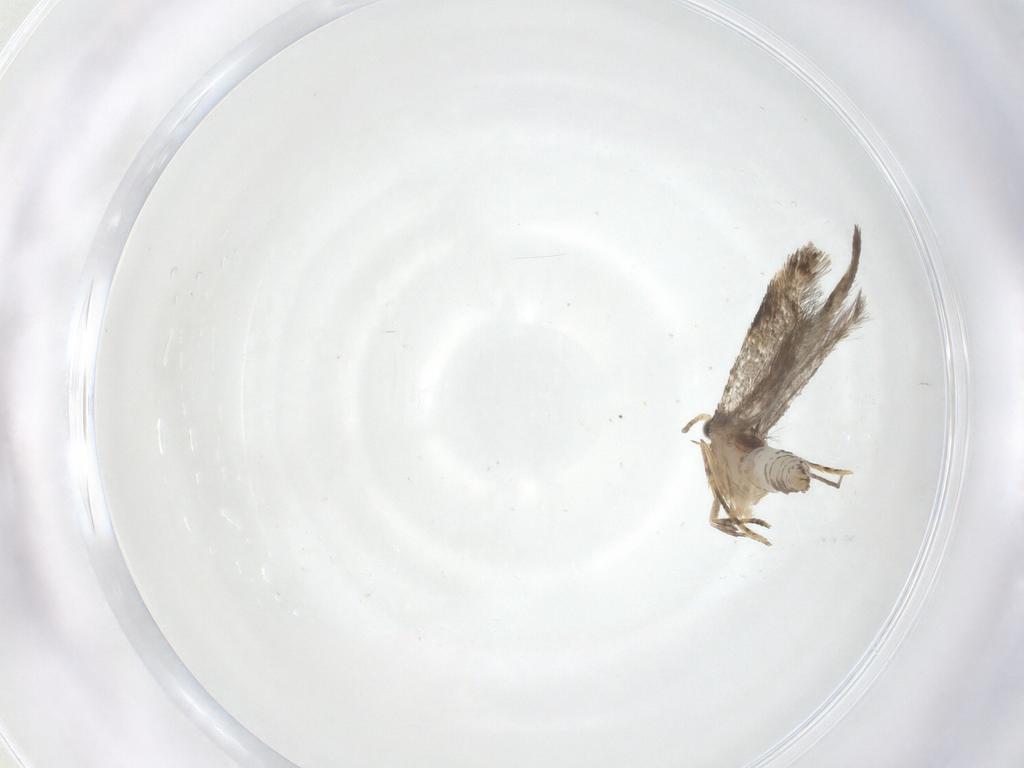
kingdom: Animalia
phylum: Arthropoda
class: Insecta
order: Lepidoptera
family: Tineidae
